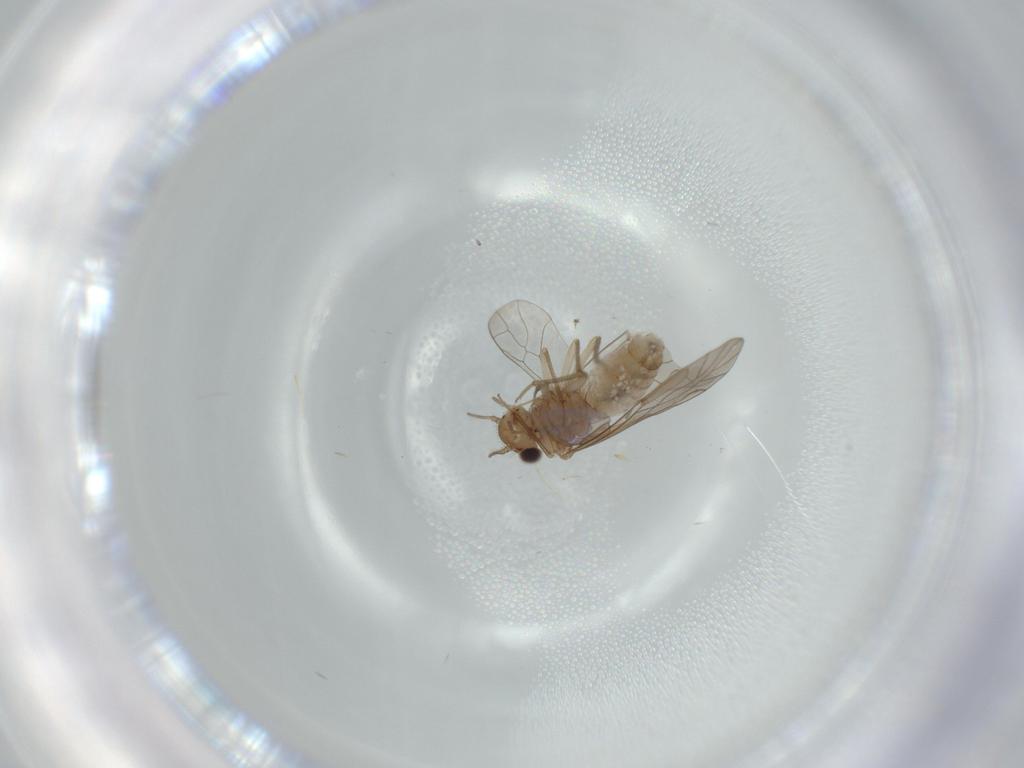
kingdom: Animalia
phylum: Arthropoda
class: Insecta
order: Psocodea
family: Lachesillidae
